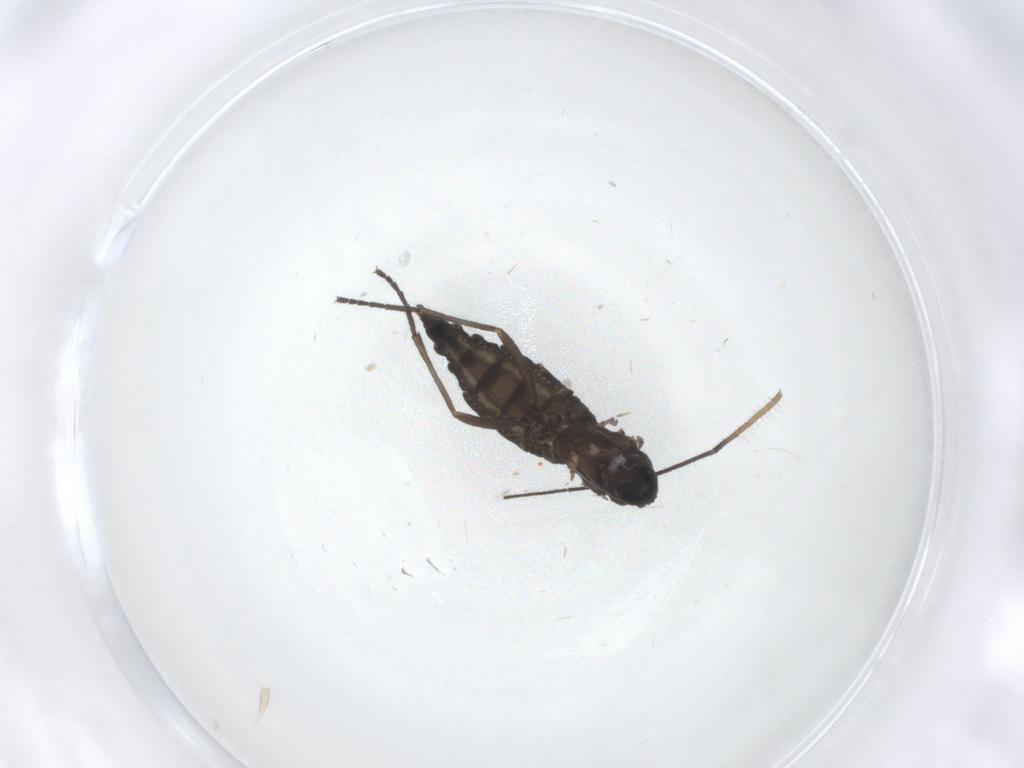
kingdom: Animalia
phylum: Arthropoda
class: Insecta
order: Diptera
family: Sciaridae
